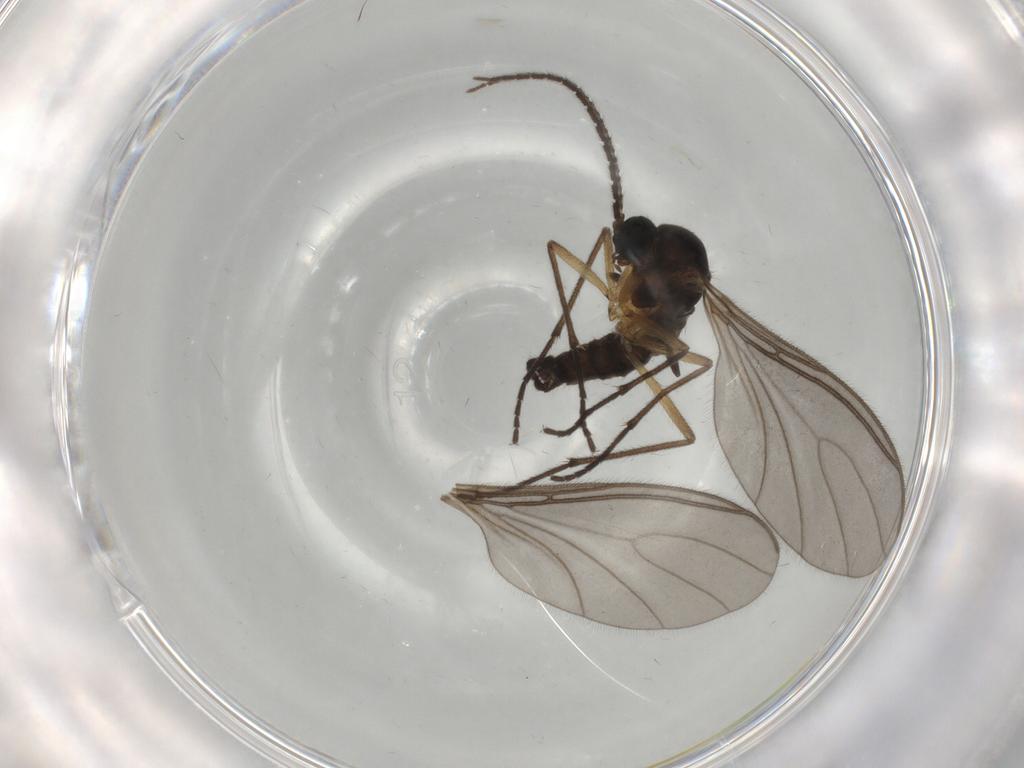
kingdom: Animalia
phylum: Arthropoda
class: Insecta
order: Diptera
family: Sciaridae
